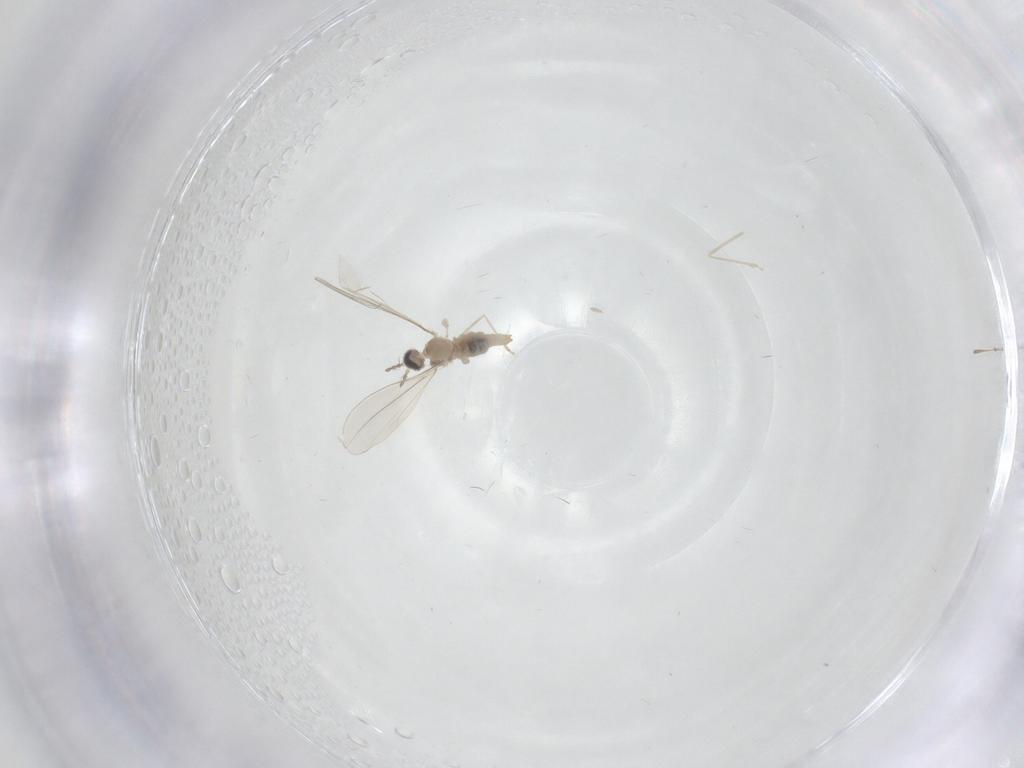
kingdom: Animalia
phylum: Arthropoda
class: Insecta
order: Diptera
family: Cecidomyiidae
